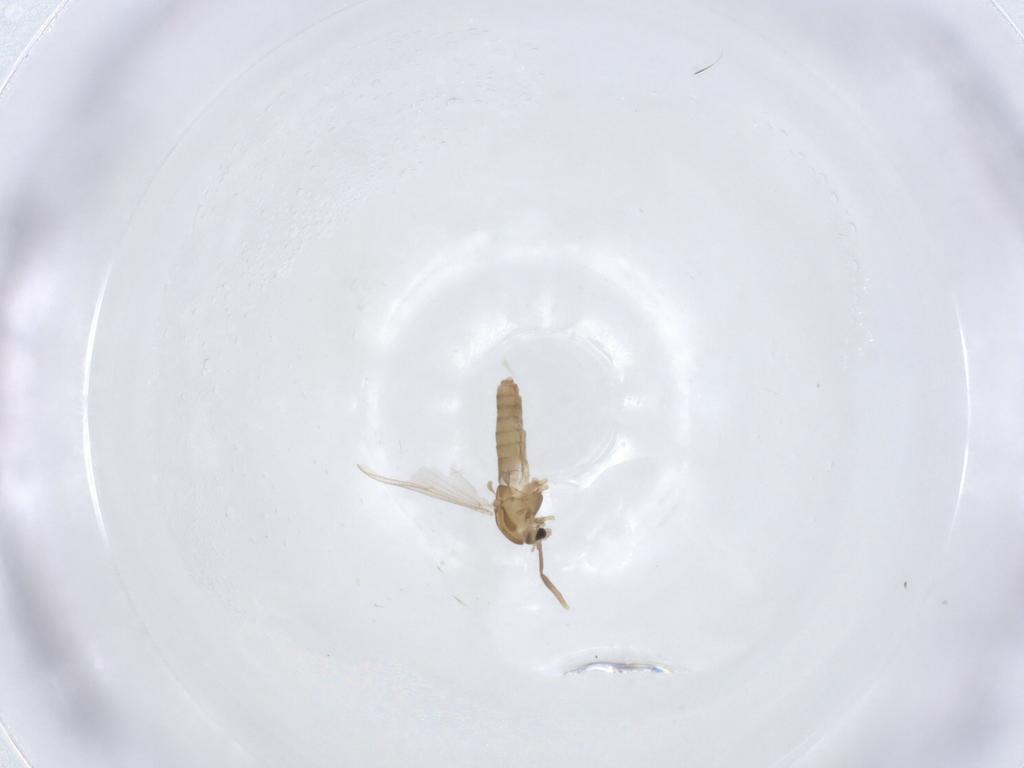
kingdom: Animalia
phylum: Arthropoda
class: Insecta
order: Diptera
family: Chironomidae
